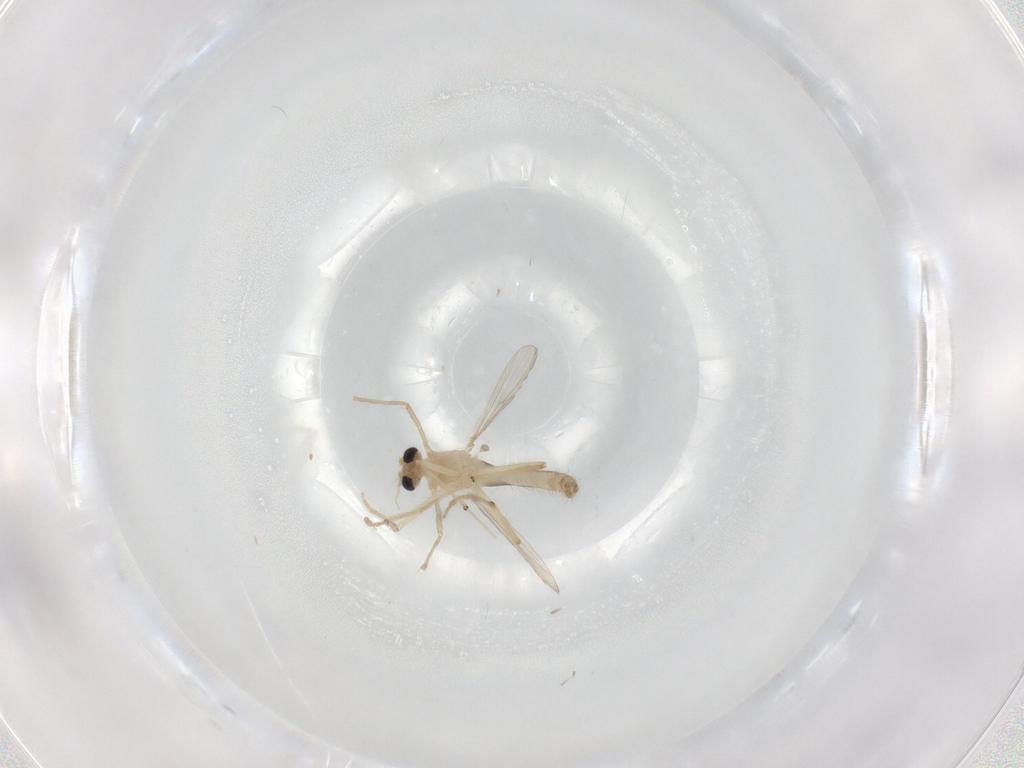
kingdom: Animalia
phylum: Arthropoda
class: Insecta
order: Diptera
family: Chironomidae
